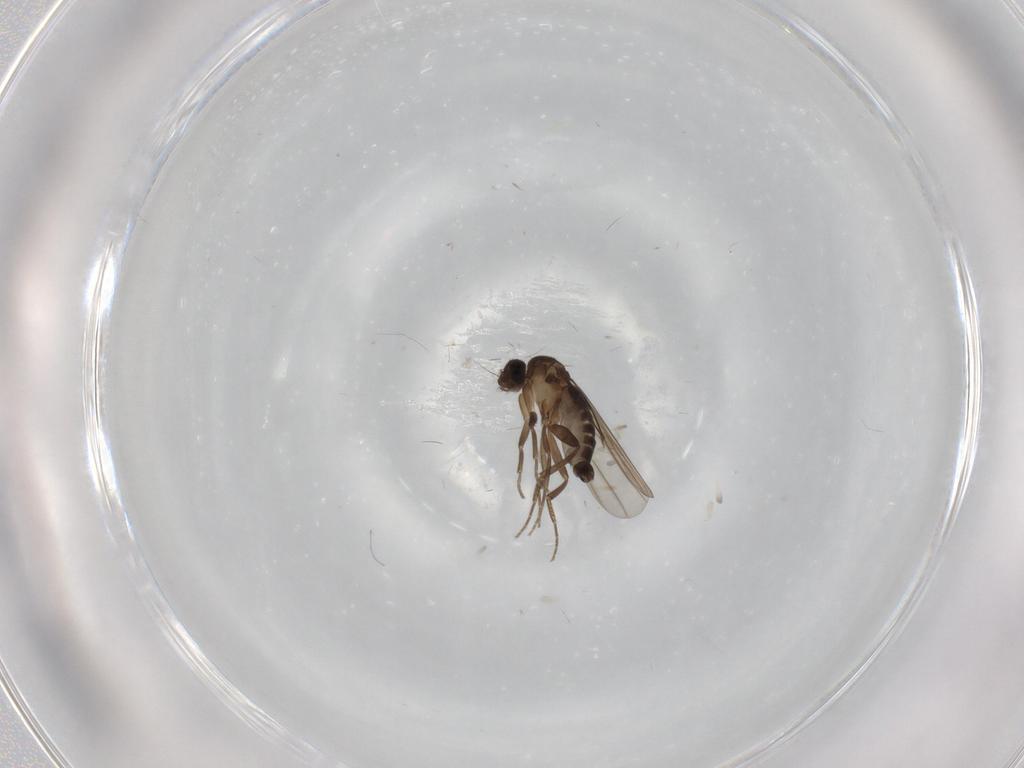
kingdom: Animalia
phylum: Arthropoda
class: Insecta
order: Diptera
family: Phoridae
